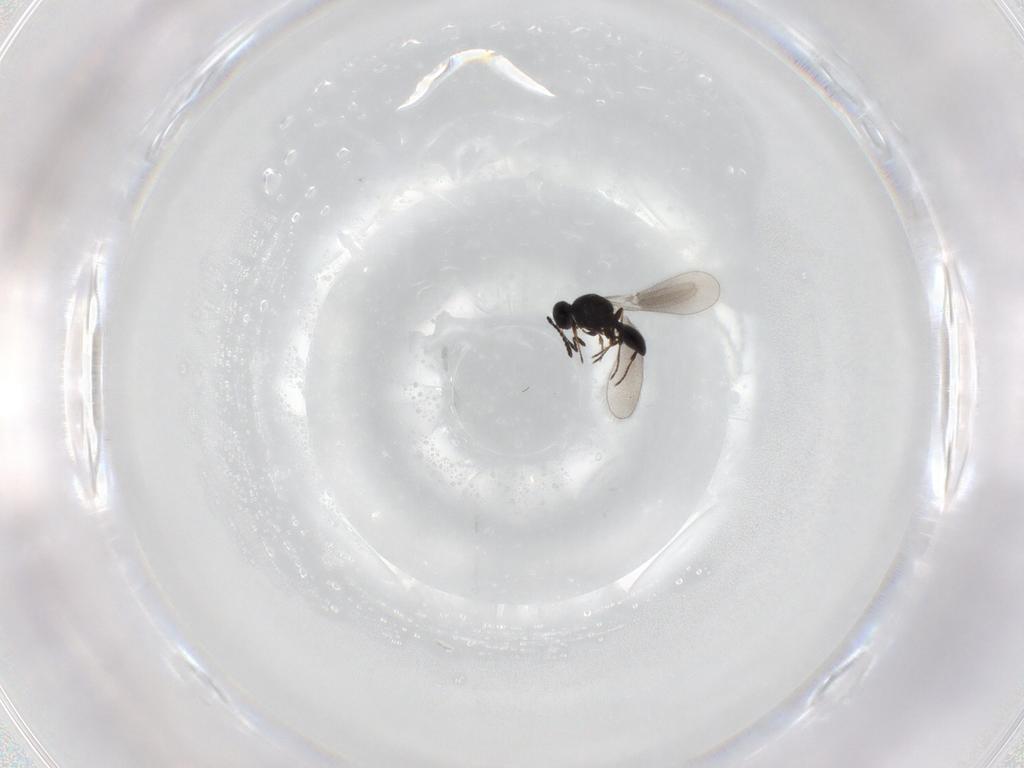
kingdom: Animalia
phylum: Arthropoda
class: Insecta
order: Hymenoptera
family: Platygastridae
